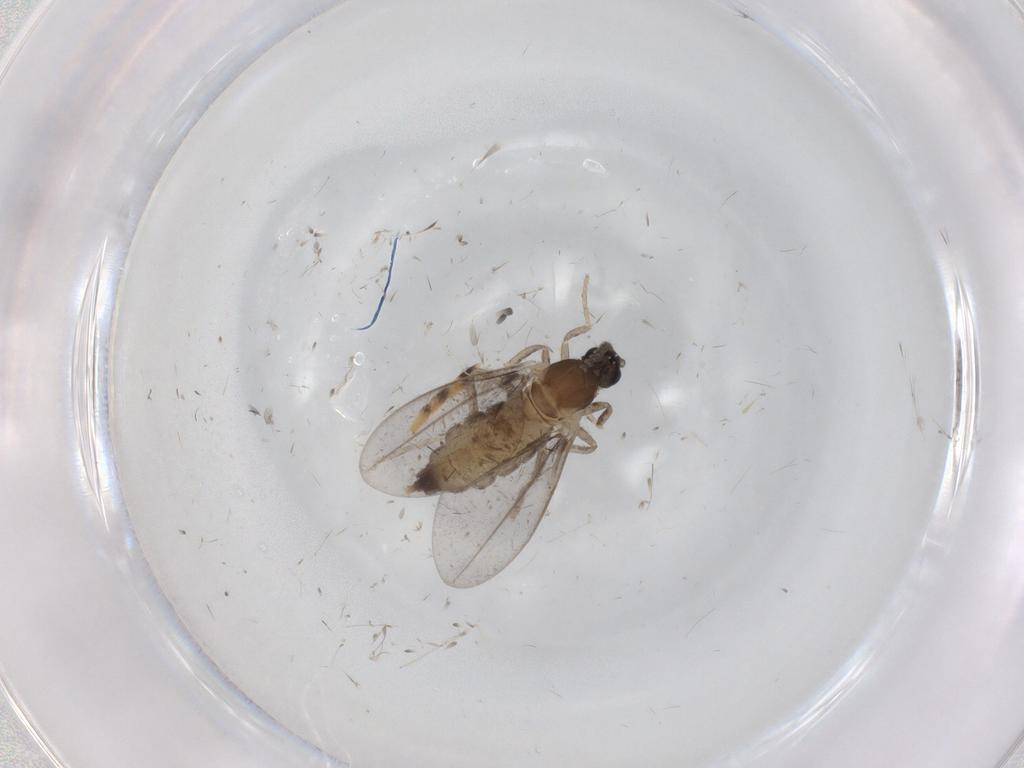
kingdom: Animalia
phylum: Arthropoda
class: Insecta
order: Diptera
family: Cecidomyiidae
